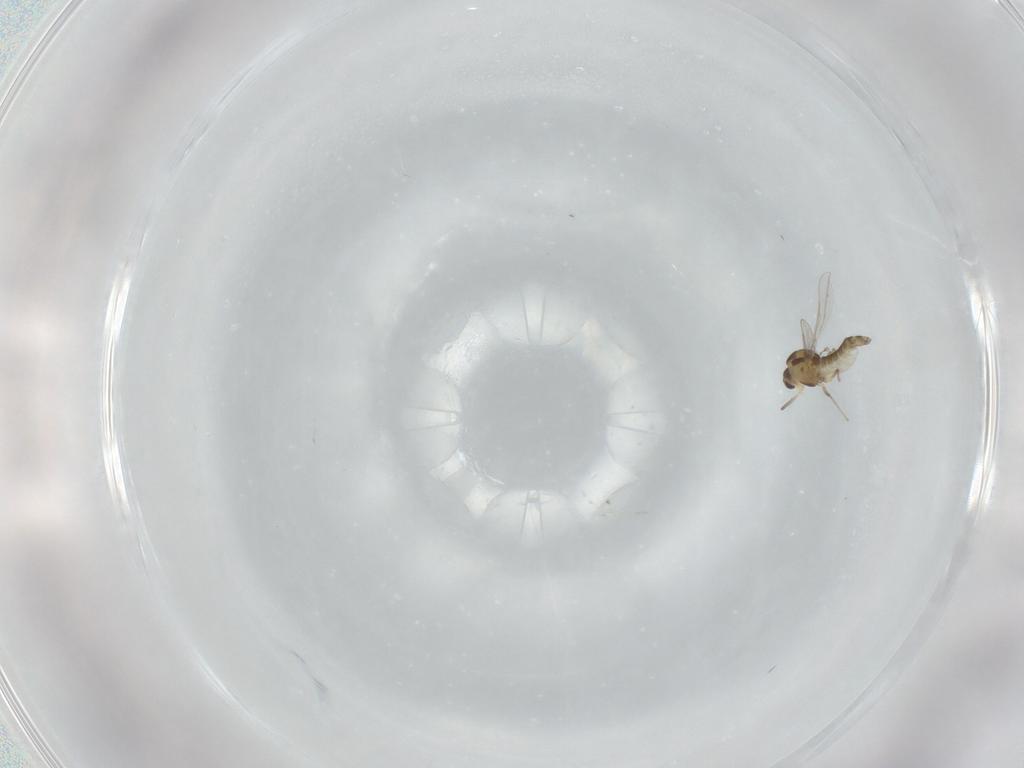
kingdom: Animalia
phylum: Arthropoda
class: Insecta
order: Diptera
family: Chironomidae
